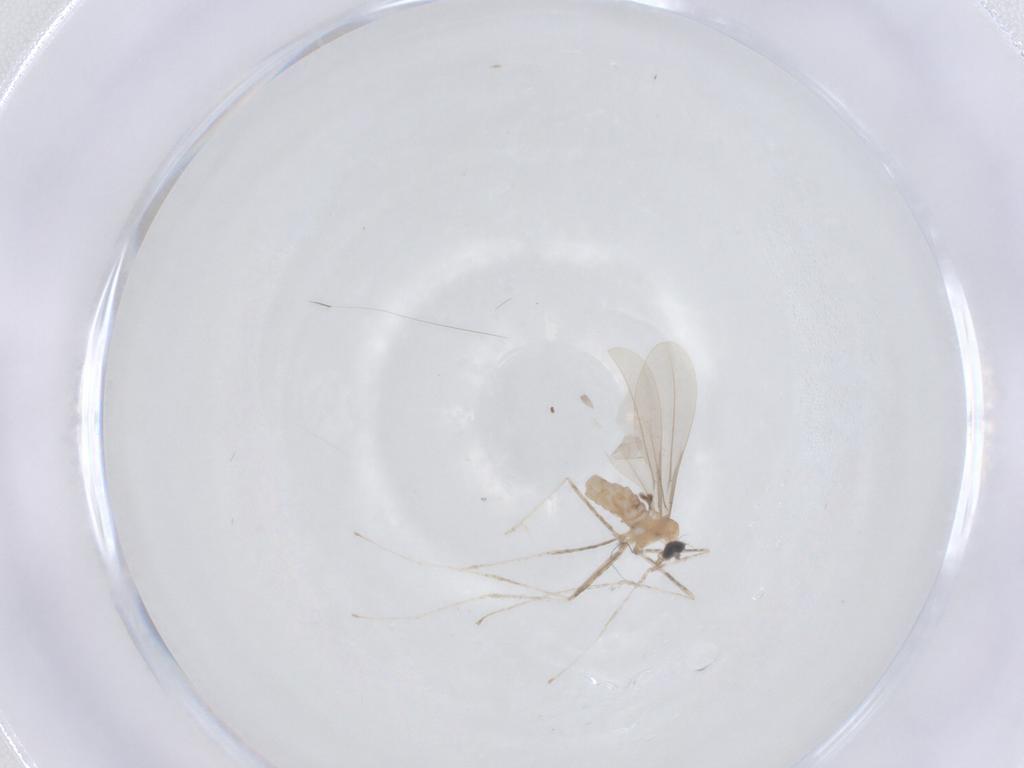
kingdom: Animalia
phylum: Arthropoda
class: Insecta
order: Diptera
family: Cecidomyiidae
